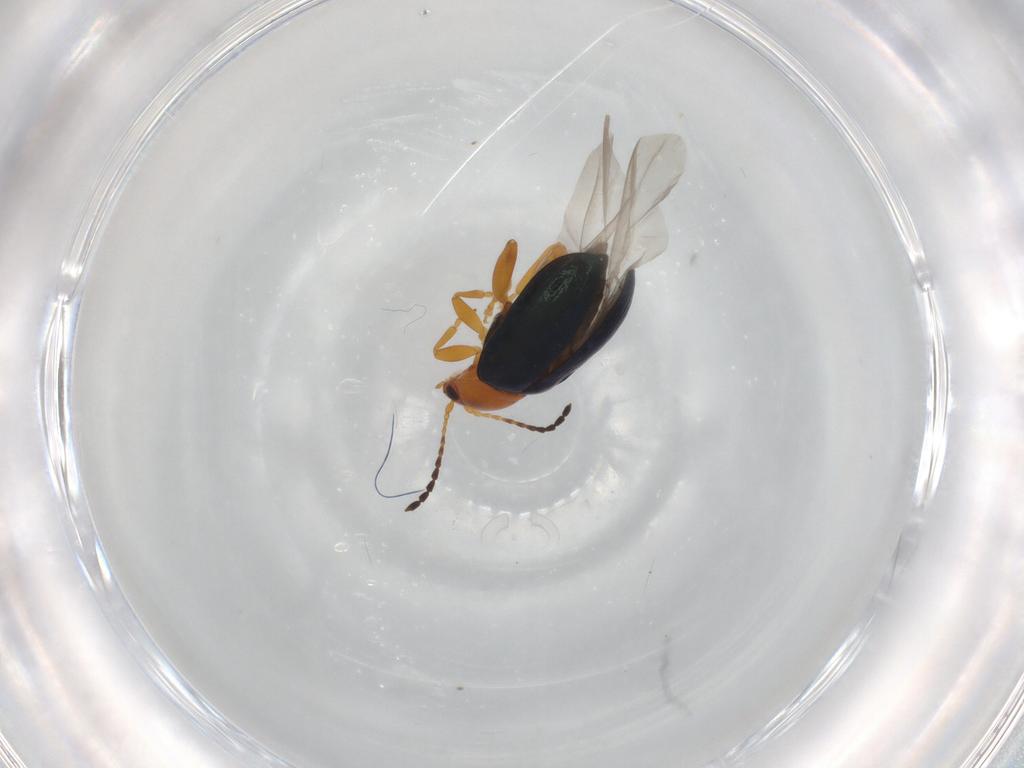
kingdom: Animalia
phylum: Arthropoda
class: Insecta
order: Coleoptera
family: Chrysomelidae
